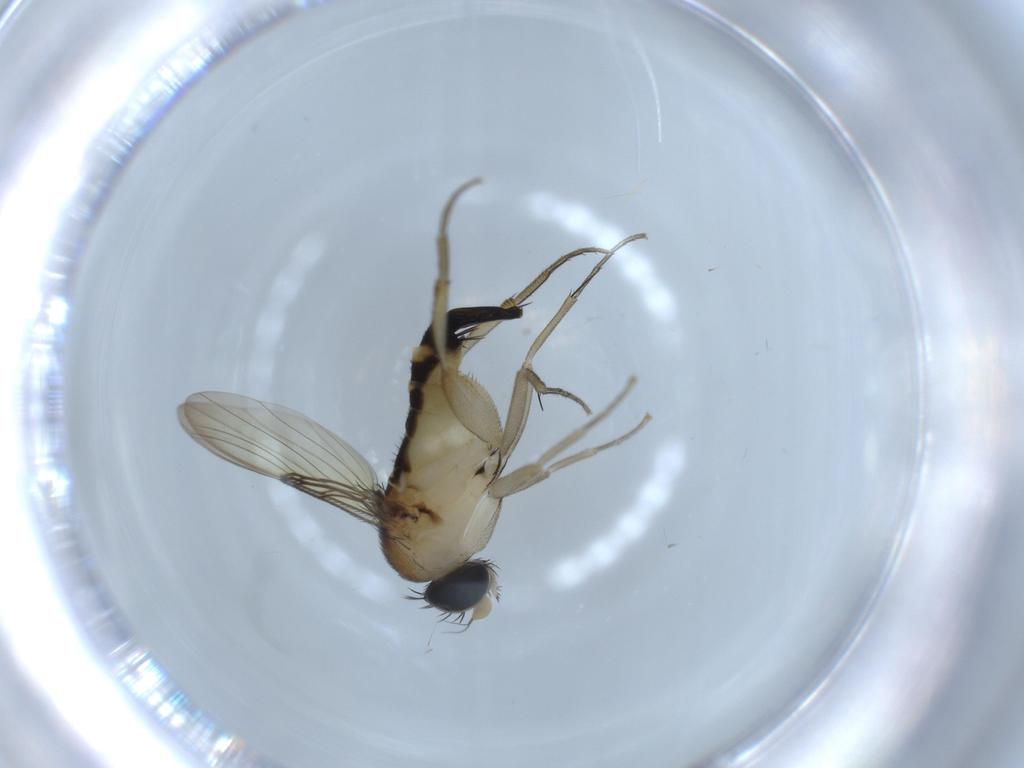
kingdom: Animalia
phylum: Arthropoda
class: Insecta
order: Diptera
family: Phoridae
